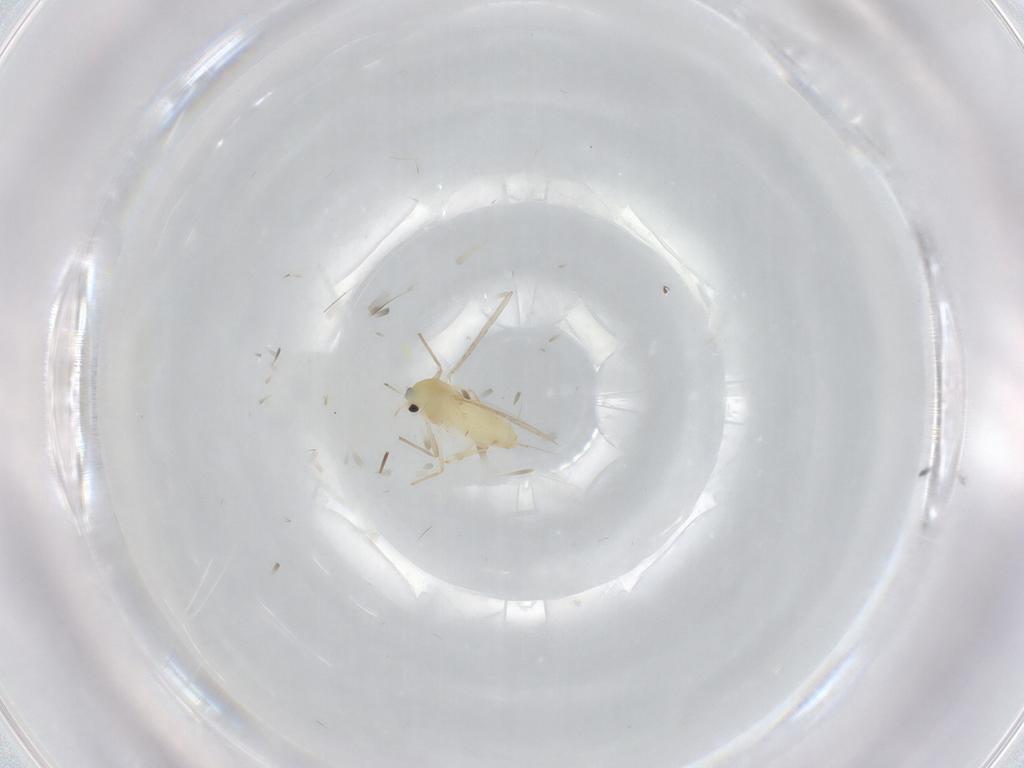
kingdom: Animalia
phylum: Arthropoda
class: Insecta
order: Diptera
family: Chironomidae
